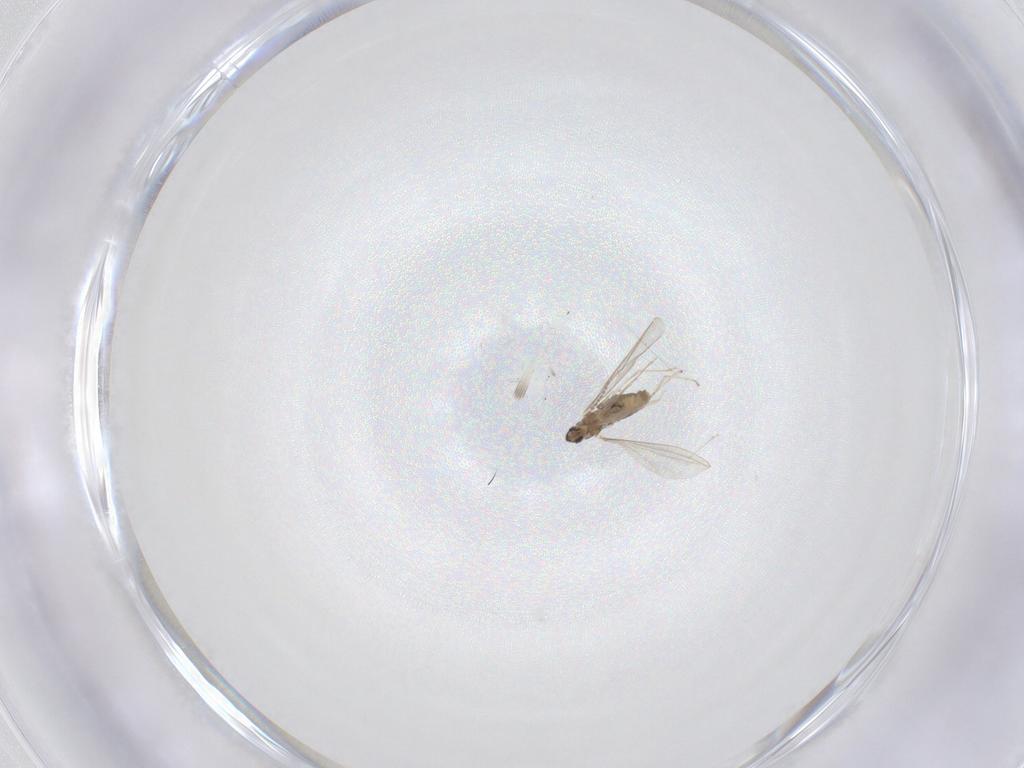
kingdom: Animalia
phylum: Arthropoda
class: Insecta
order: Diptera
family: Cecidomyiidae
